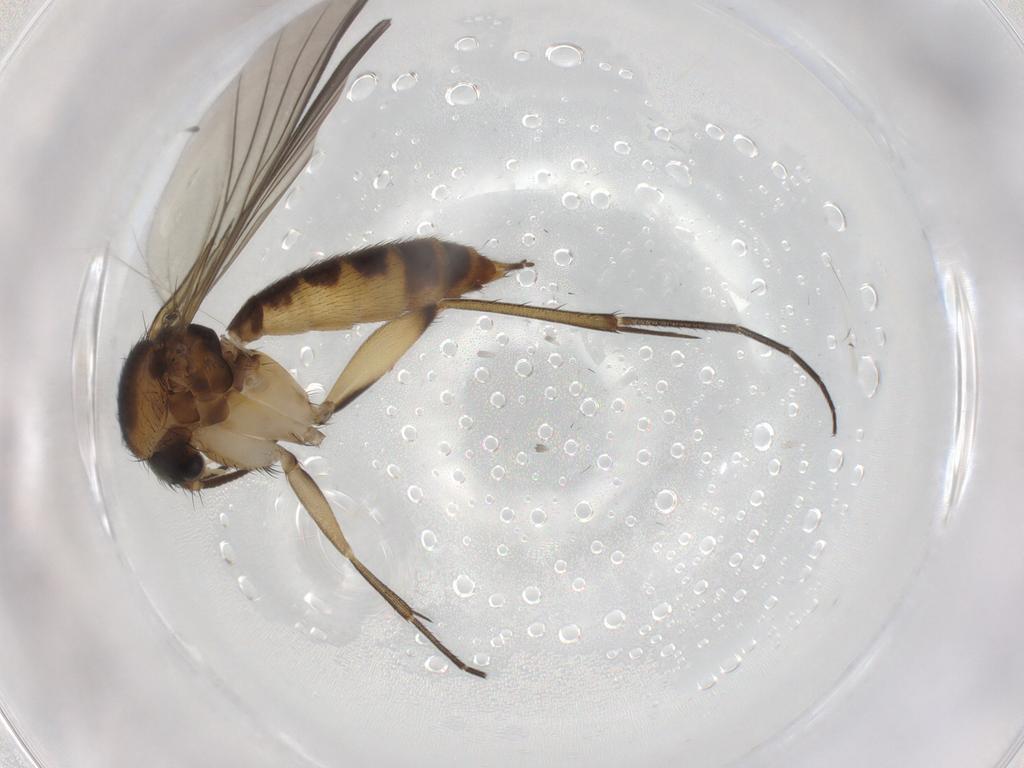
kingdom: Animalia
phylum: Arthropoda
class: Insecta
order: Diptera
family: Mycetophilidae
